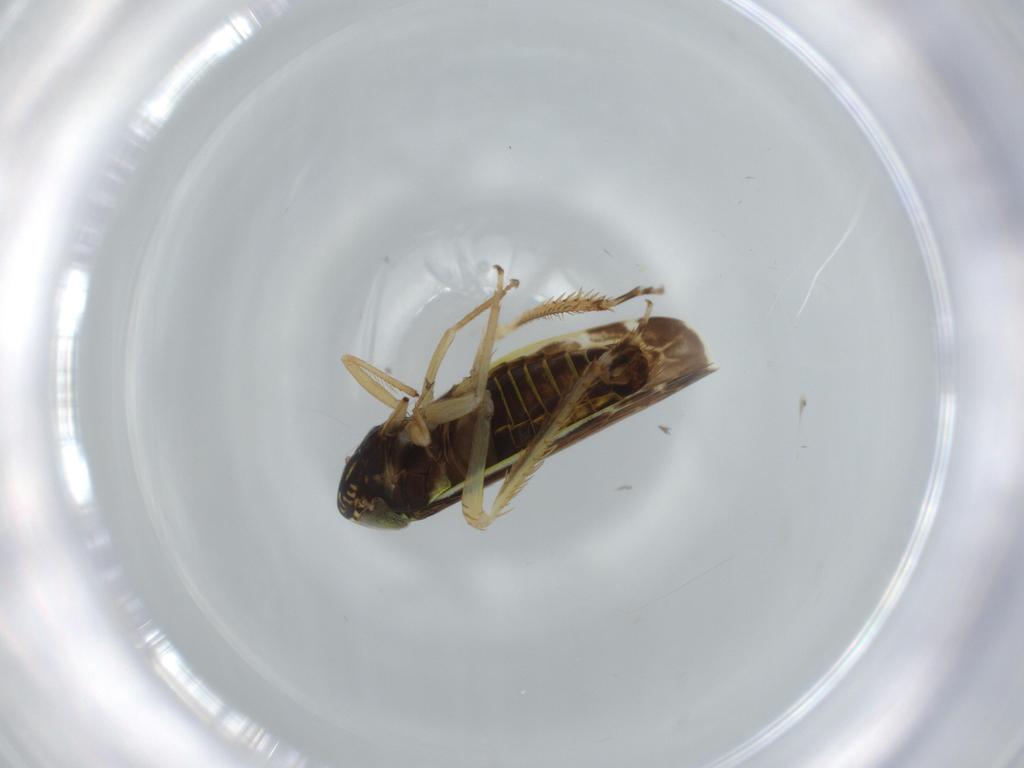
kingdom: Animalia
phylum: Arthropoda
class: Insecta
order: Hemiptera
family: Cicadellidae
